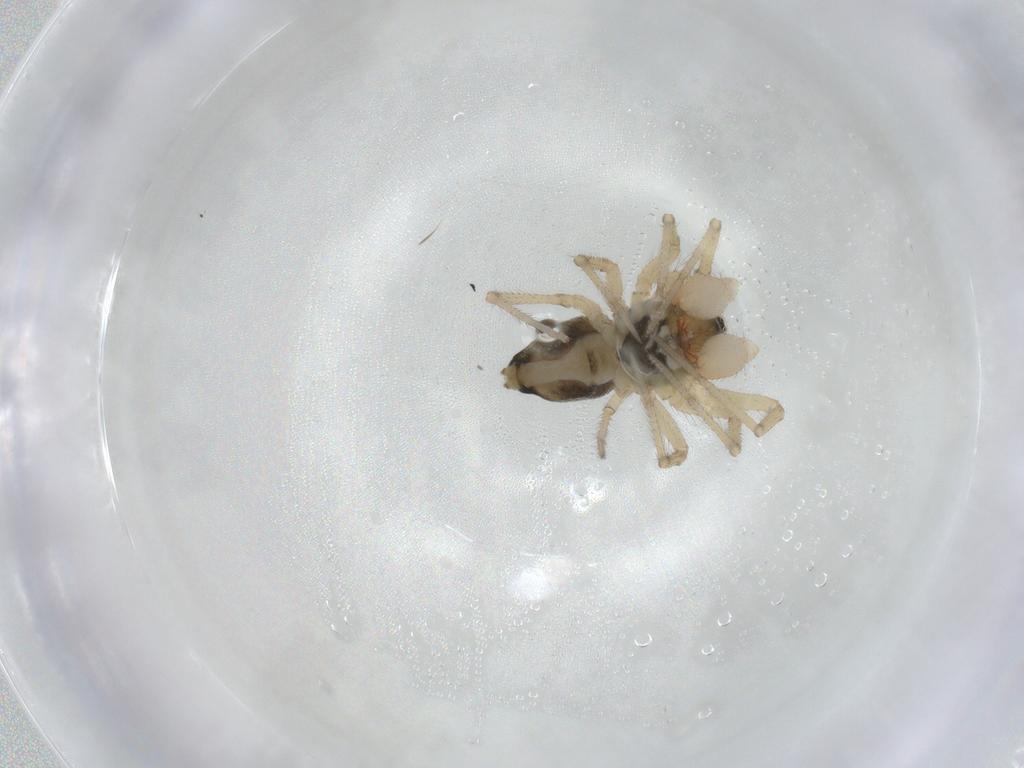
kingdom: Animalia
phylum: Arthropoda
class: Arachnida
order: Araneae
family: Linyphiidae
